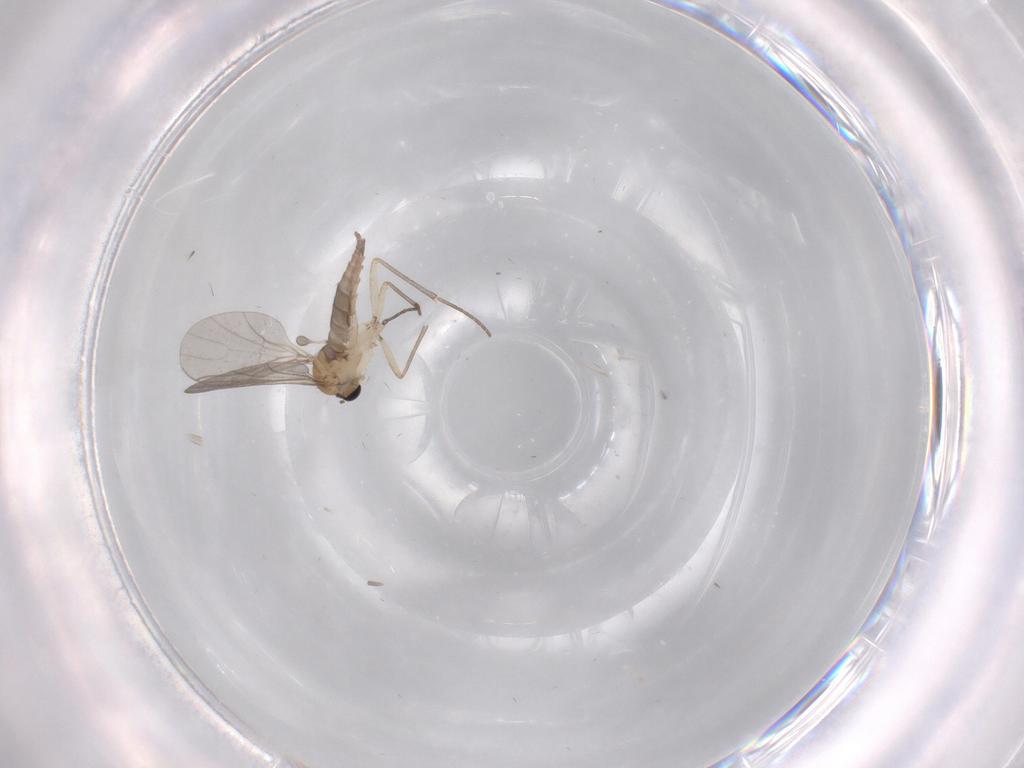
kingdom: Animalia
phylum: Arthropoda
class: Insecta
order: Diptera
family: Sciaridae
